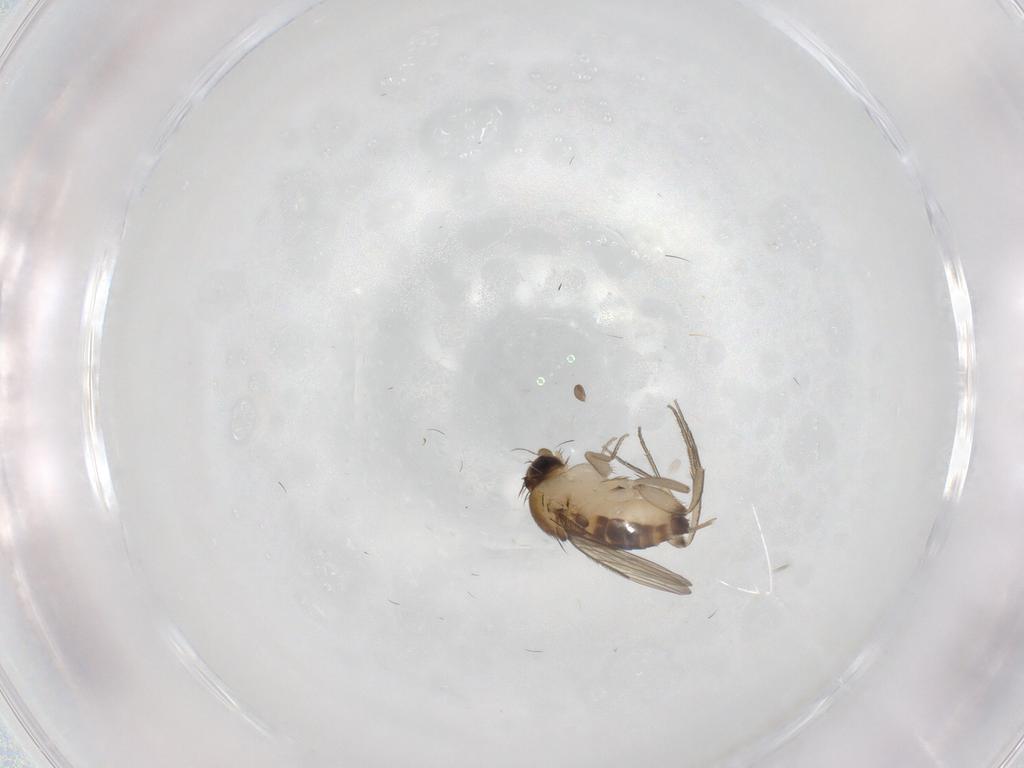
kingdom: Animalia
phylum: Arthropoda
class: Insecta
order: Diptera
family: Phoridae
